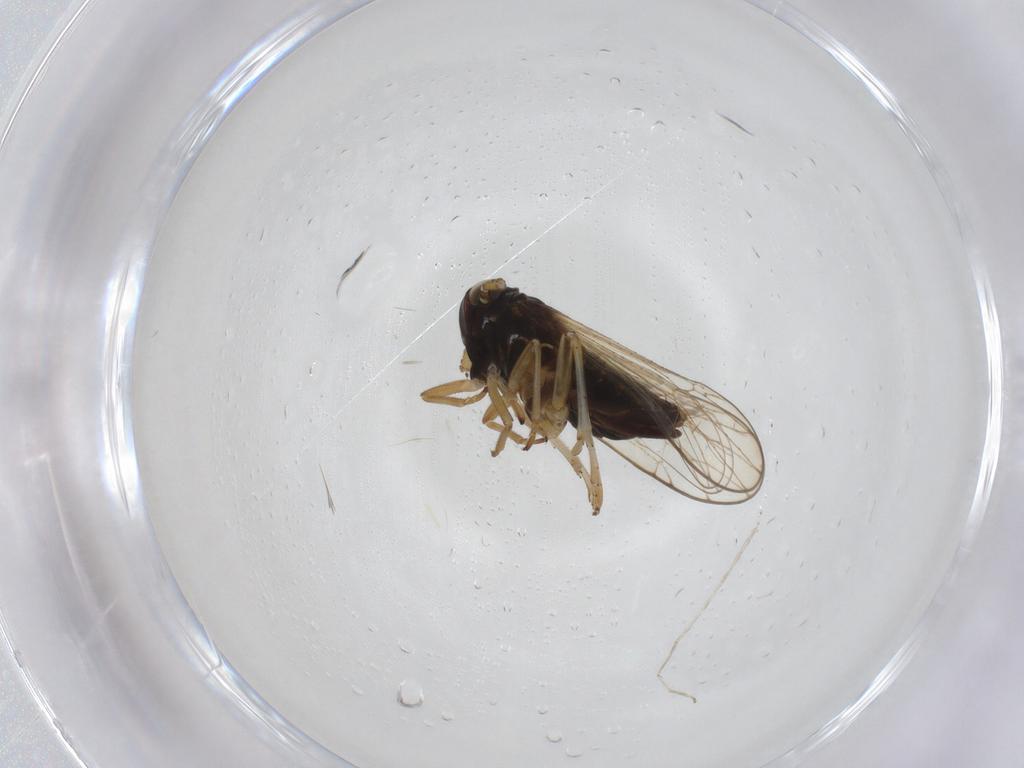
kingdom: Animalia
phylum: Arthropoda
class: Insecta
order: Hemiptera
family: Delphacidae
